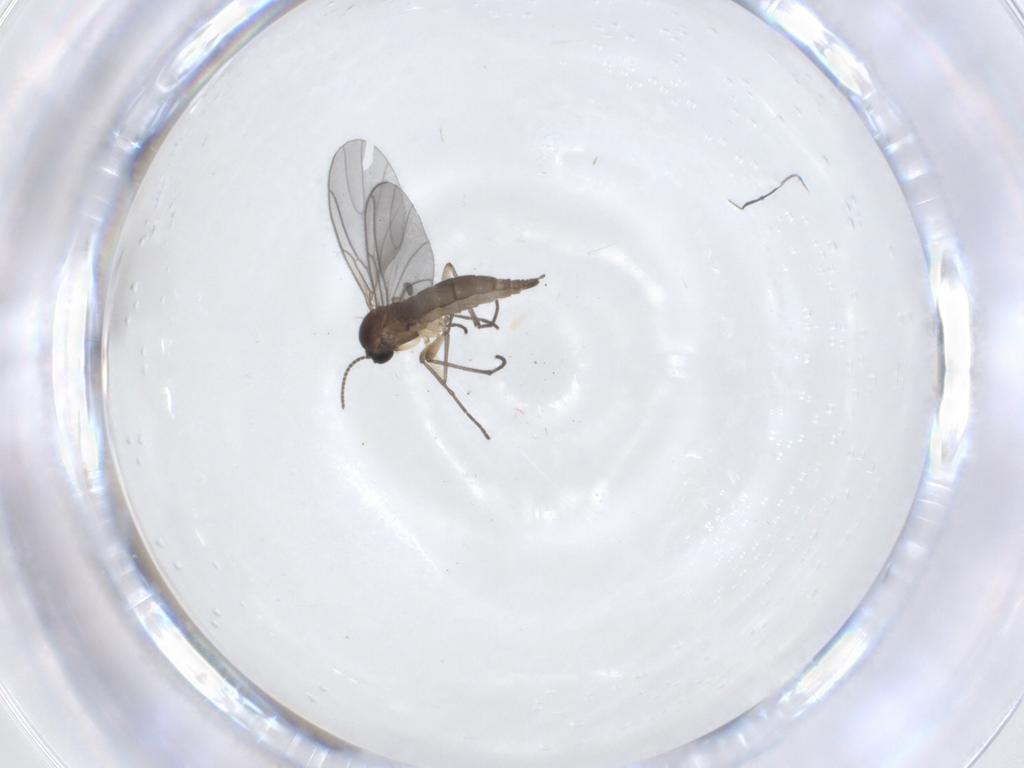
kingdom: Animalia
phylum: Arthropoda
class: Insecta
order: Diptera
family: Sciaridae
